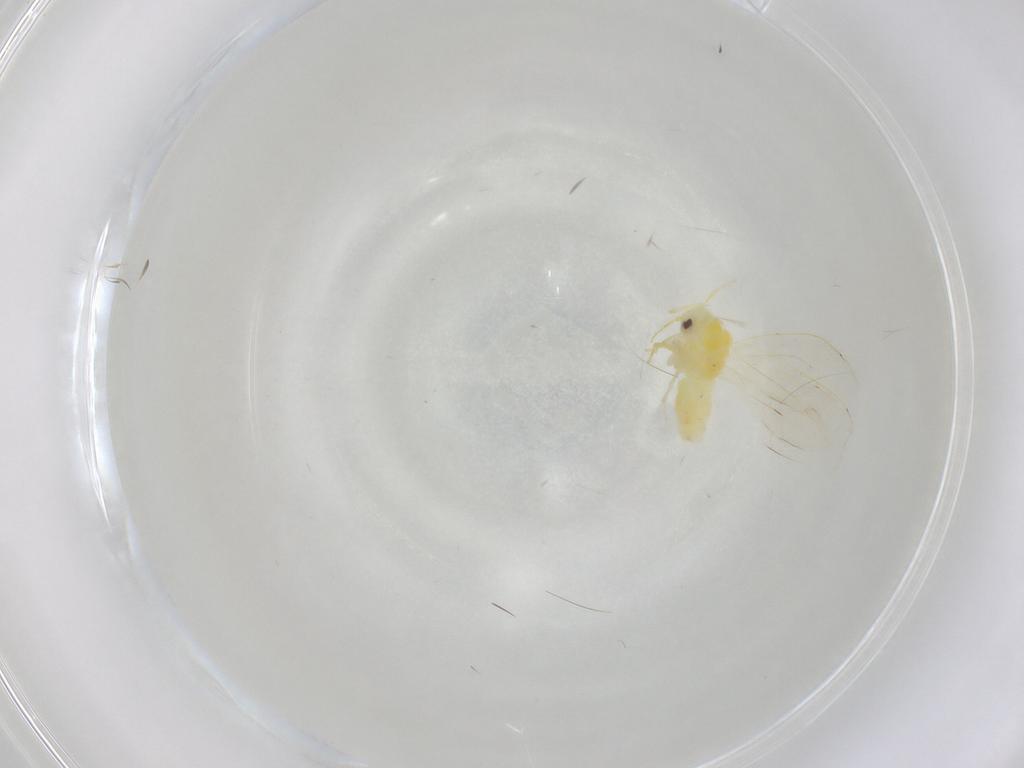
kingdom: Animalia
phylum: Arthropoda
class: Insecta
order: Hemiptera
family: Aleyrodidae
